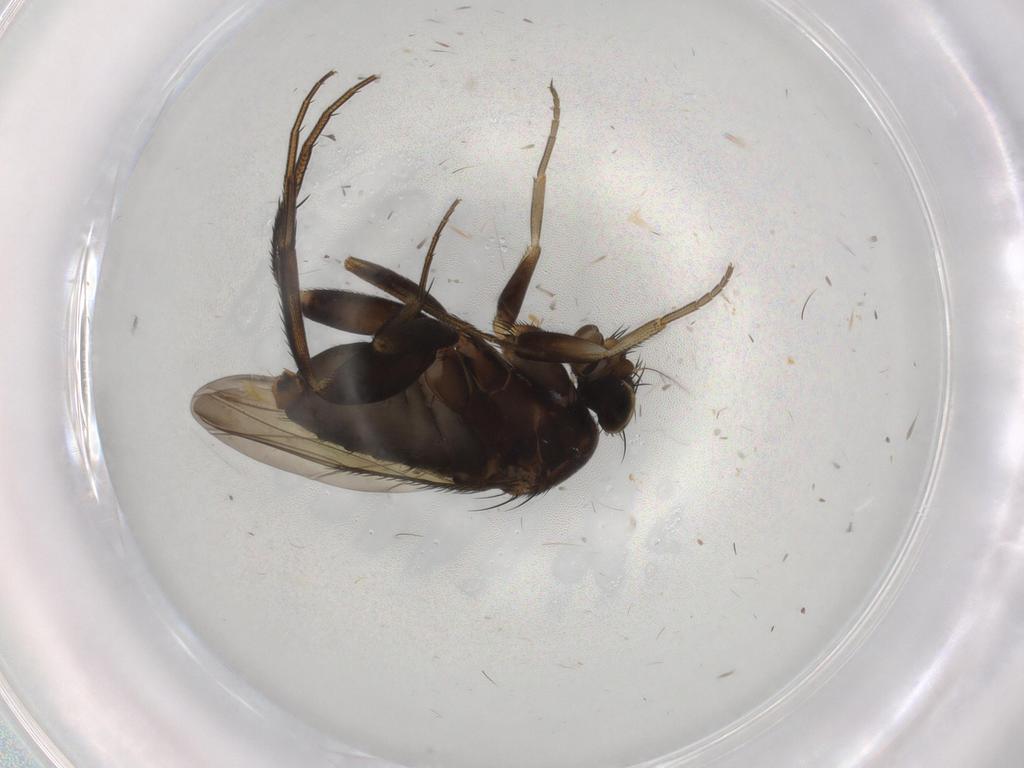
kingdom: Animalia
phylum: Arthropoda
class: Insecta
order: Diptera
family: Phoridae
